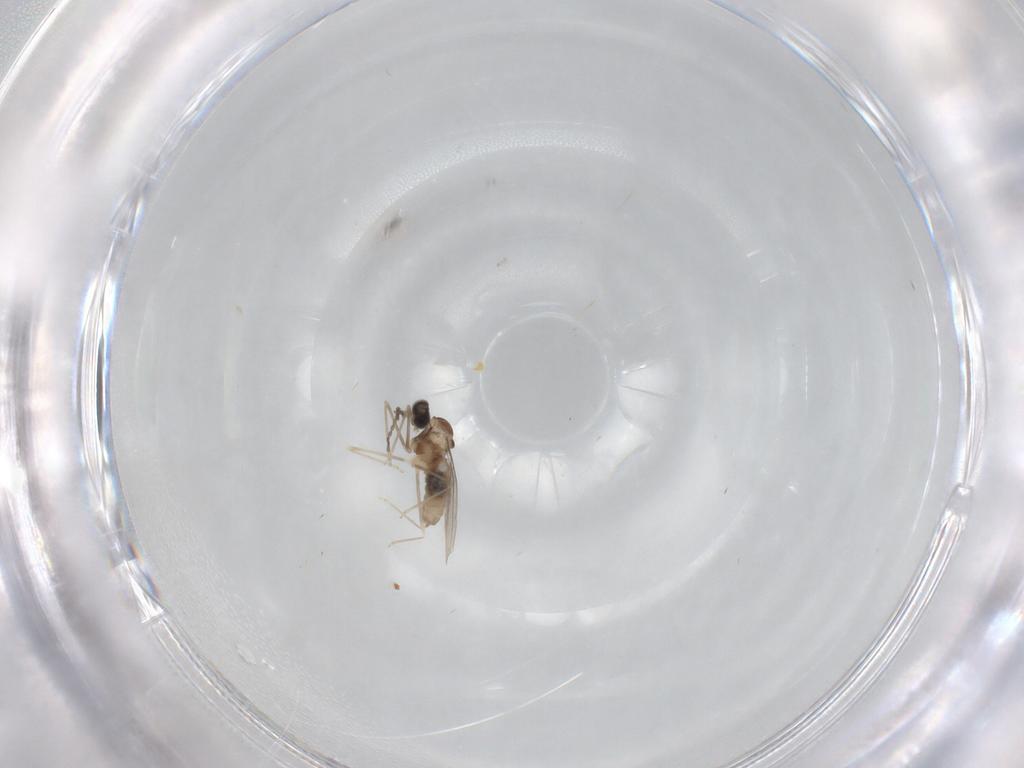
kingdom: Animalia
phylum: Arthropoda
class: Insecta
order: Diptera
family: Cecidomyiidae
